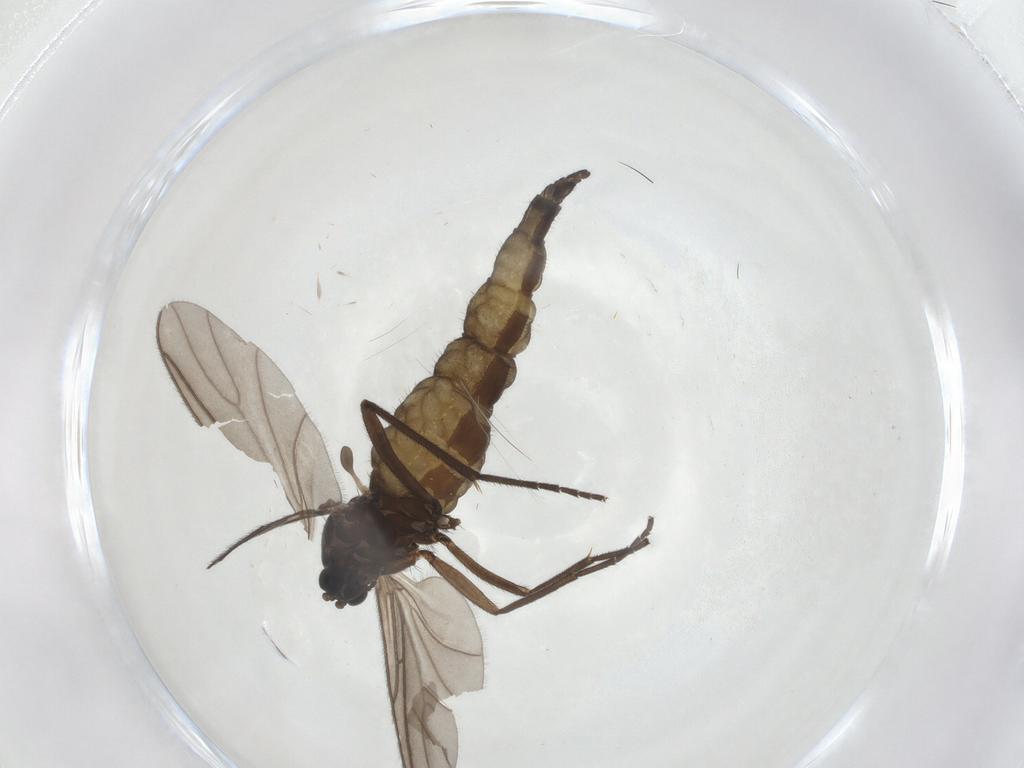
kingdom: Animalia
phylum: Arthropoda
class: Insecta
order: Diptera
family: Sciaridae
